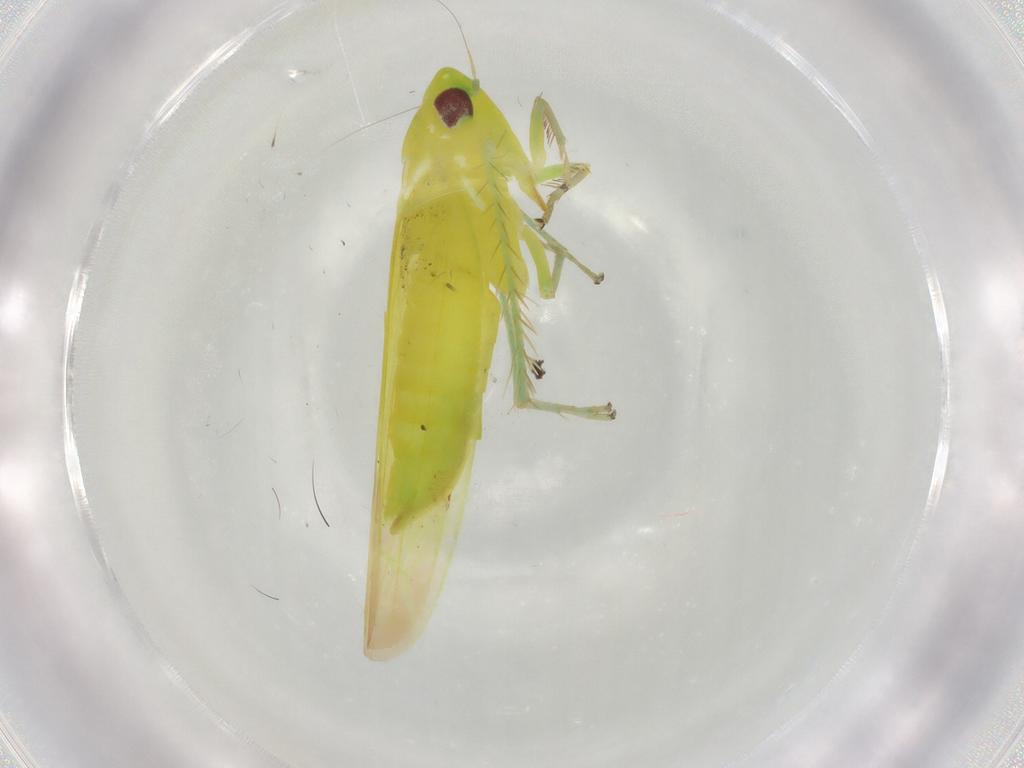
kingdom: Animalia
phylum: Arthropoda
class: Insecta
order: Hemiptera
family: Cicadellidae
